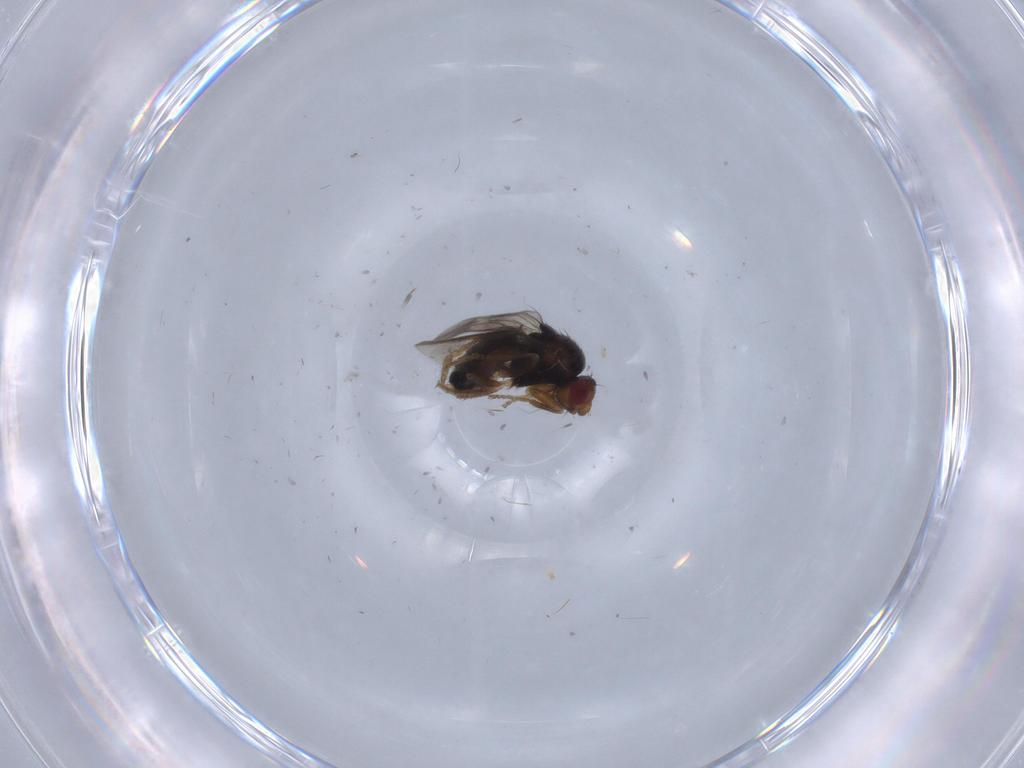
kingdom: Animalia
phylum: Arthropoda
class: Insecta
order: Diptera
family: Sphaeroceridae
